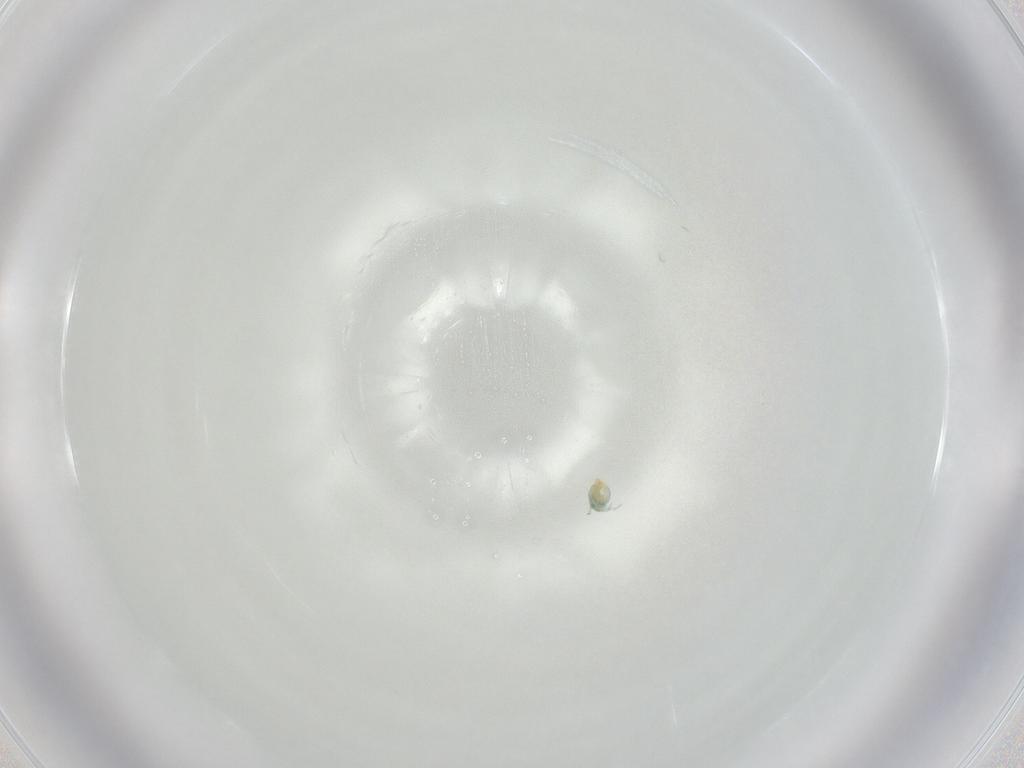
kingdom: Animalia
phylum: Arthropoda
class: Arachnida
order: Trombidiformes
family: Arrenuridae
